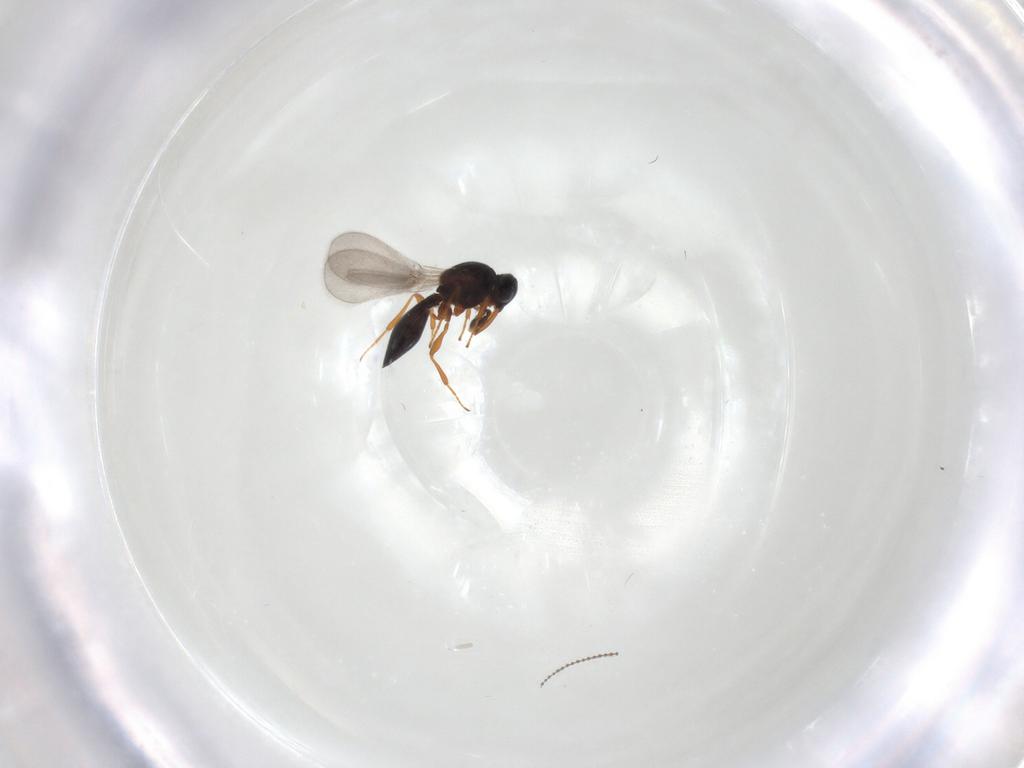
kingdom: Animalia
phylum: Arthropoda
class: Insecta
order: Hymenoptera
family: Platygastridae
